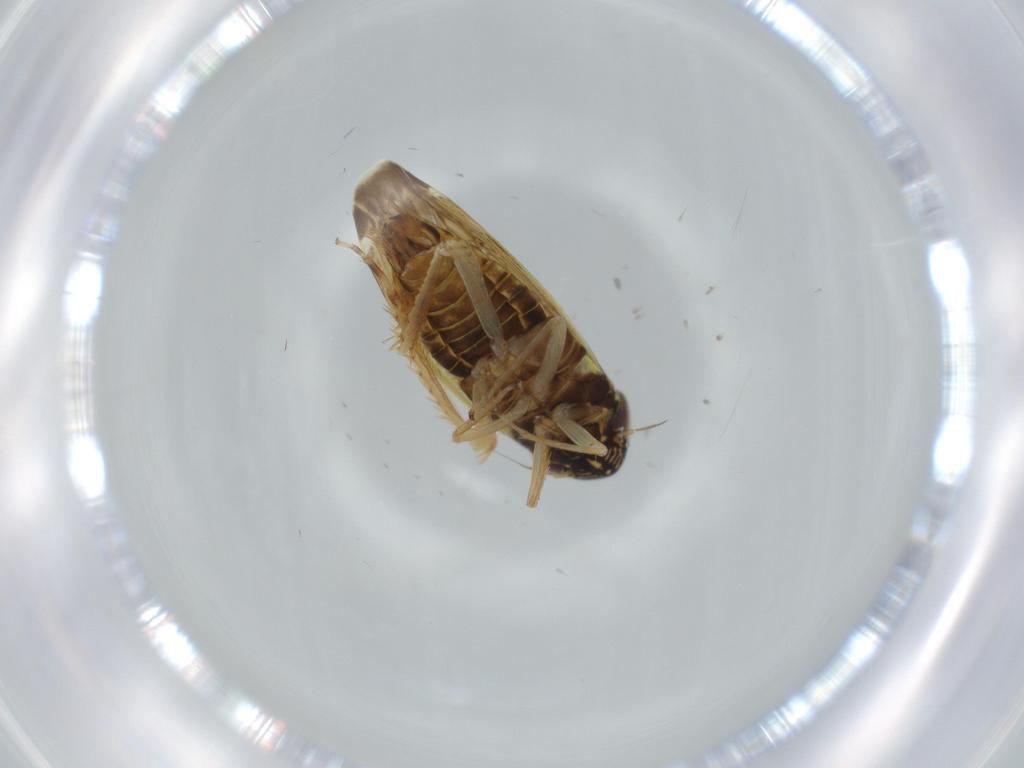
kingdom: Animalia
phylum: Arthropoda
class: Insecta
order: Hemiptera
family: Cicadellidae
